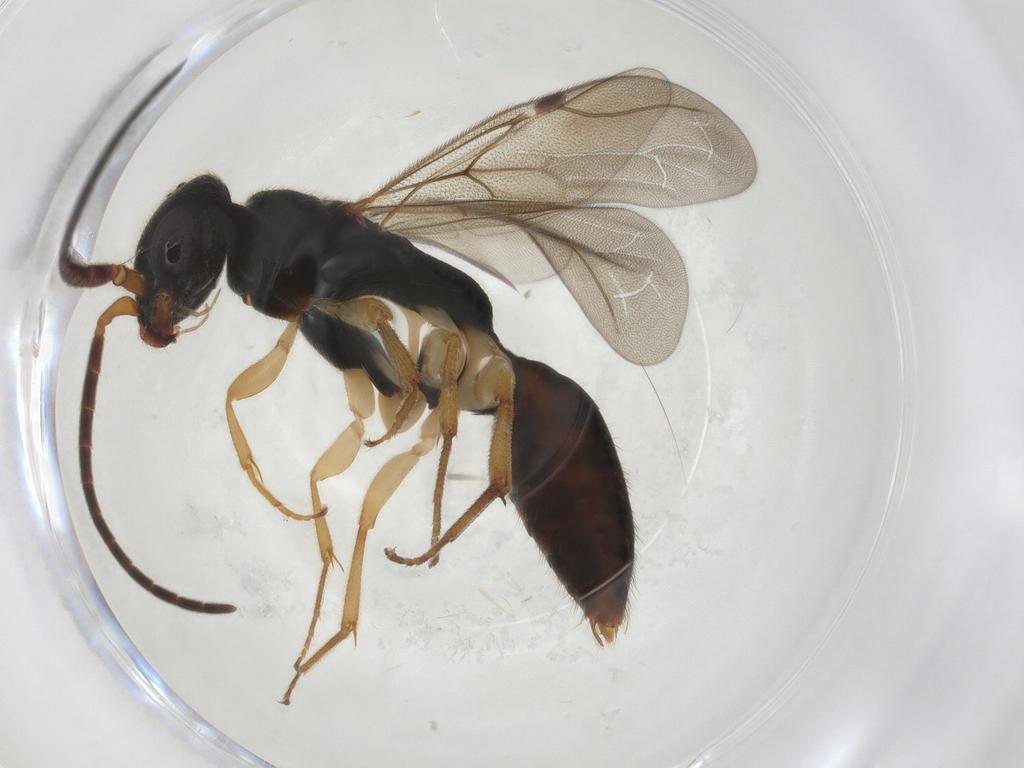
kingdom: Animalia
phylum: Arthropoda
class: Insecta
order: Hymenoptera
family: Bethylidae
